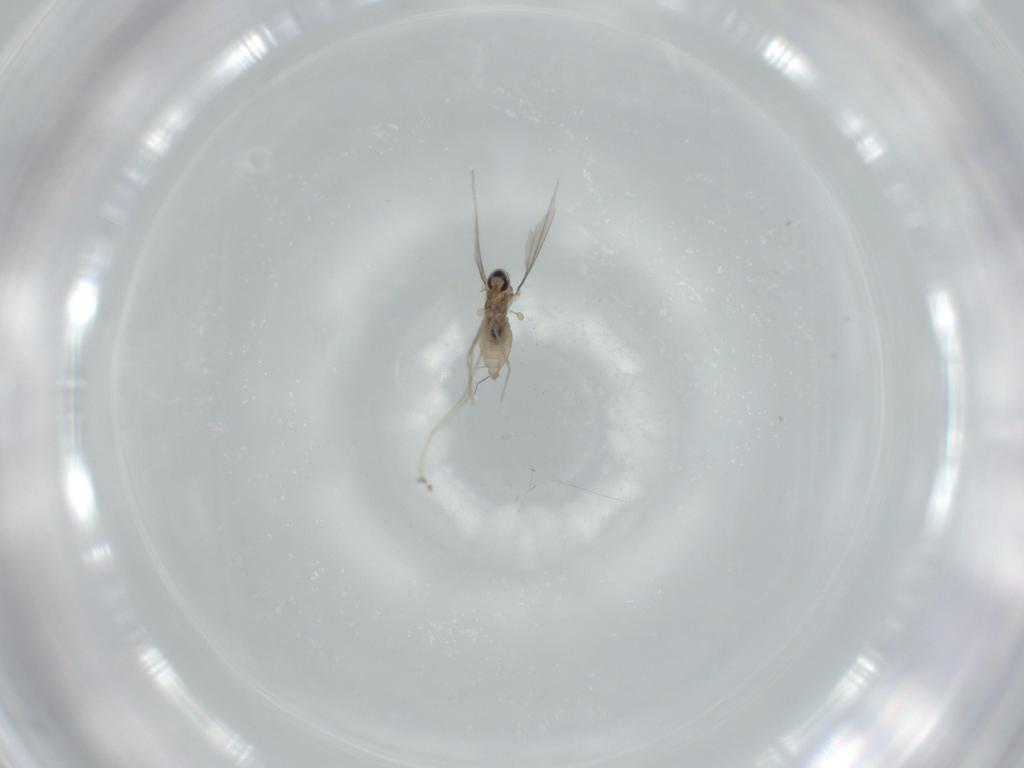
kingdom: Animalia
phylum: Arthropoda
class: Insecta
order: Diptera
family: Cecidomyiidae
